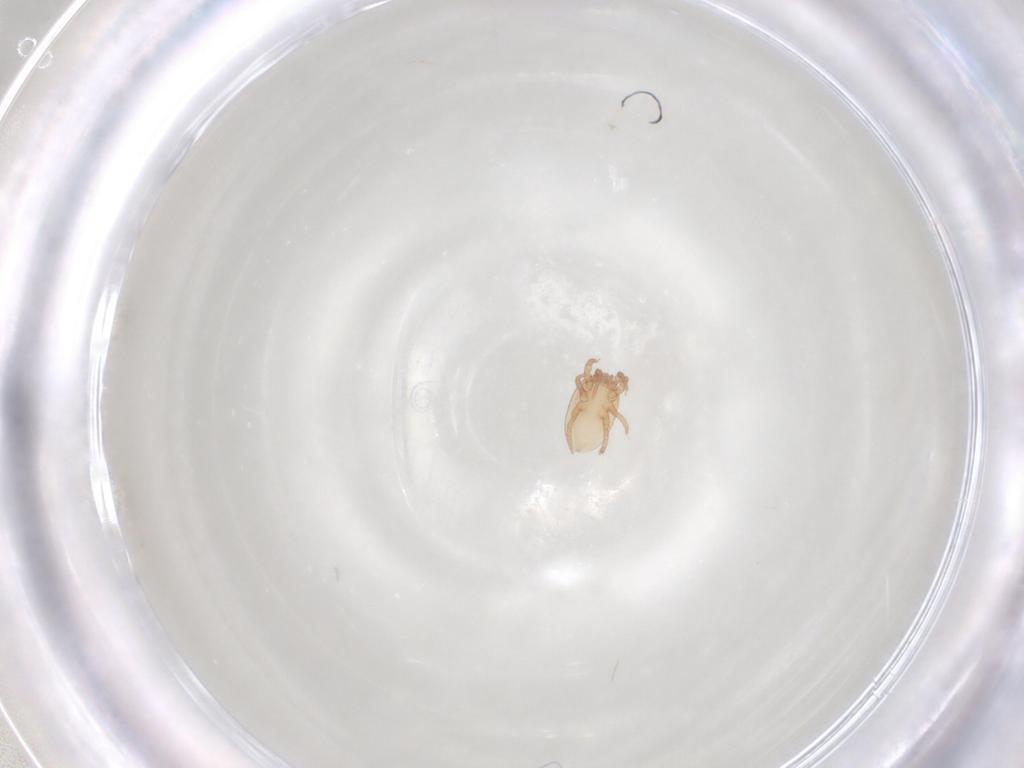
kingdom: Animalia
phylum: Arthropoda
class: Arachnida
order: Mesostigmata
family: Laelapidae
